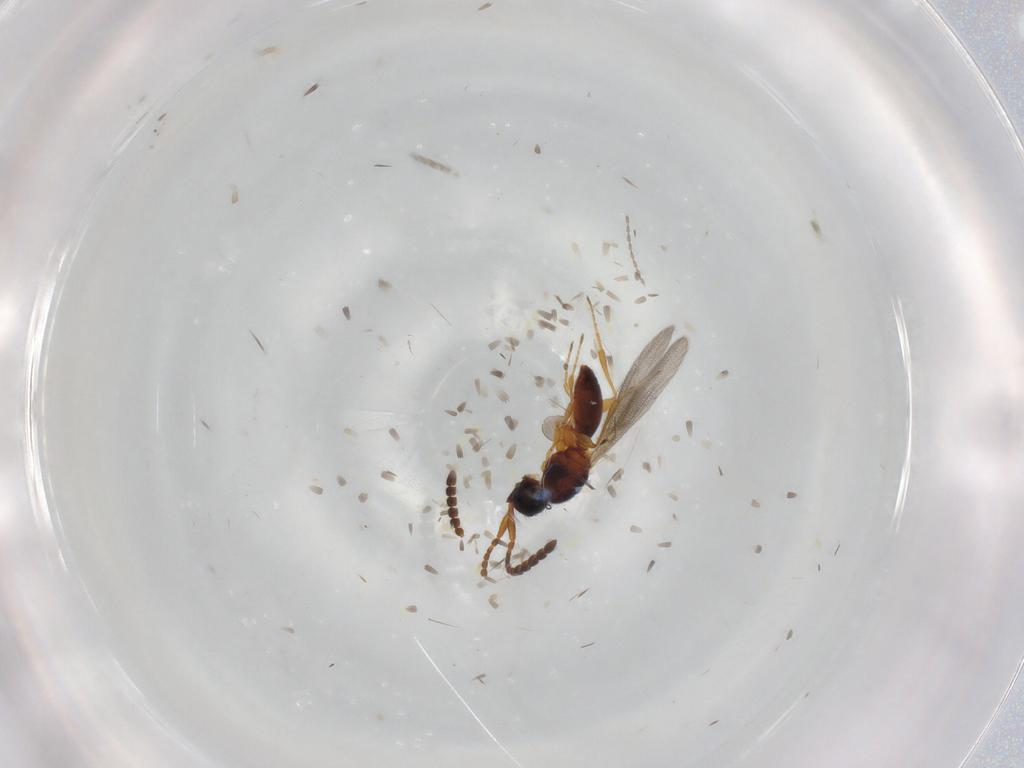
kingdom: Animalia
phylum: Arthropoda
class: Insecta
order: Hymenoptera
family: Diapriidae
